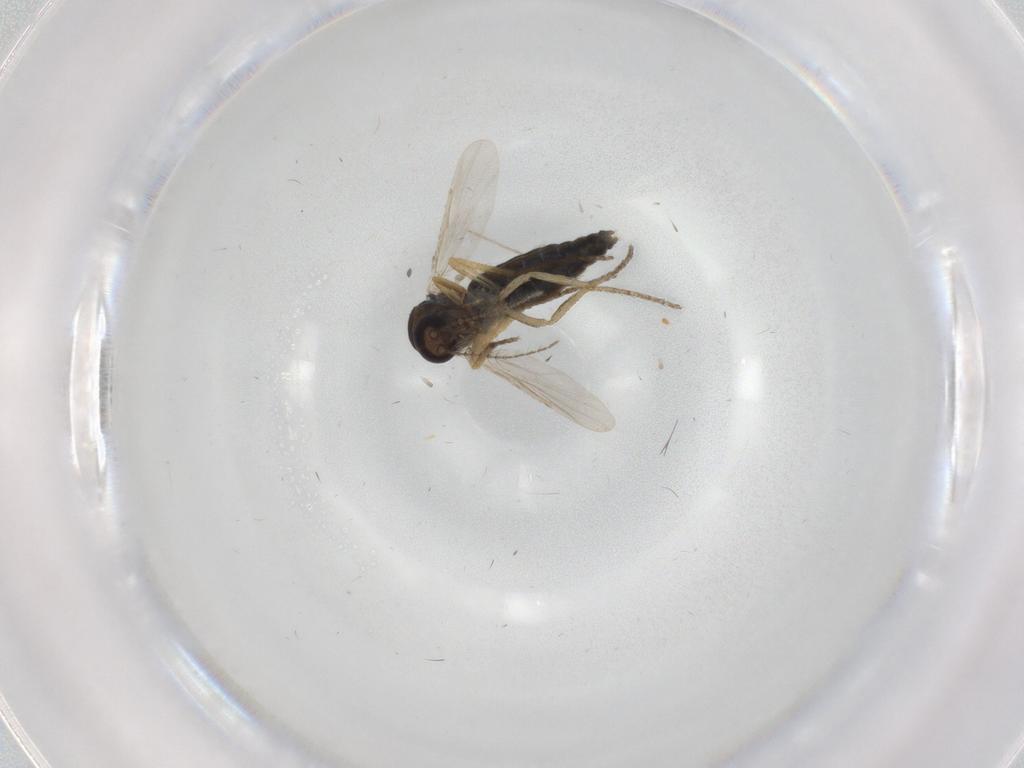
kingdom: Animalia
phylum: Arthropoda
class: Insecta
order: Diptera
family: Ceratopogonidae
